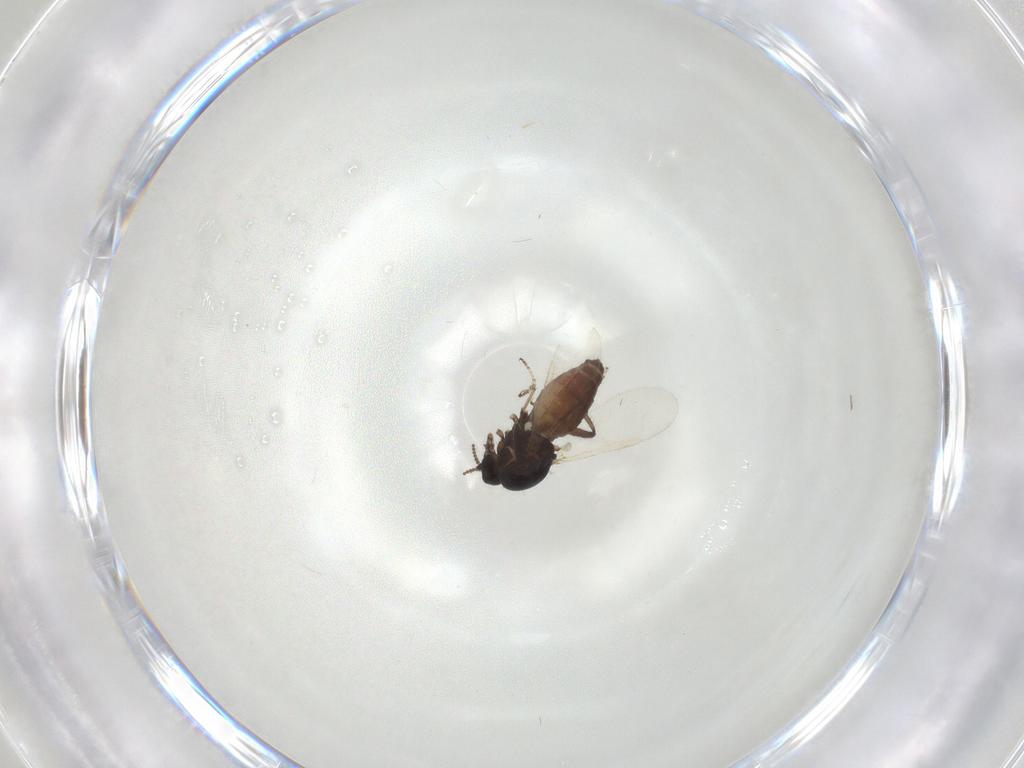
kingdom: Animalia
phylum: Arthropoda
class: Insecta
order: Diptera
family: Ceratopogonidae
